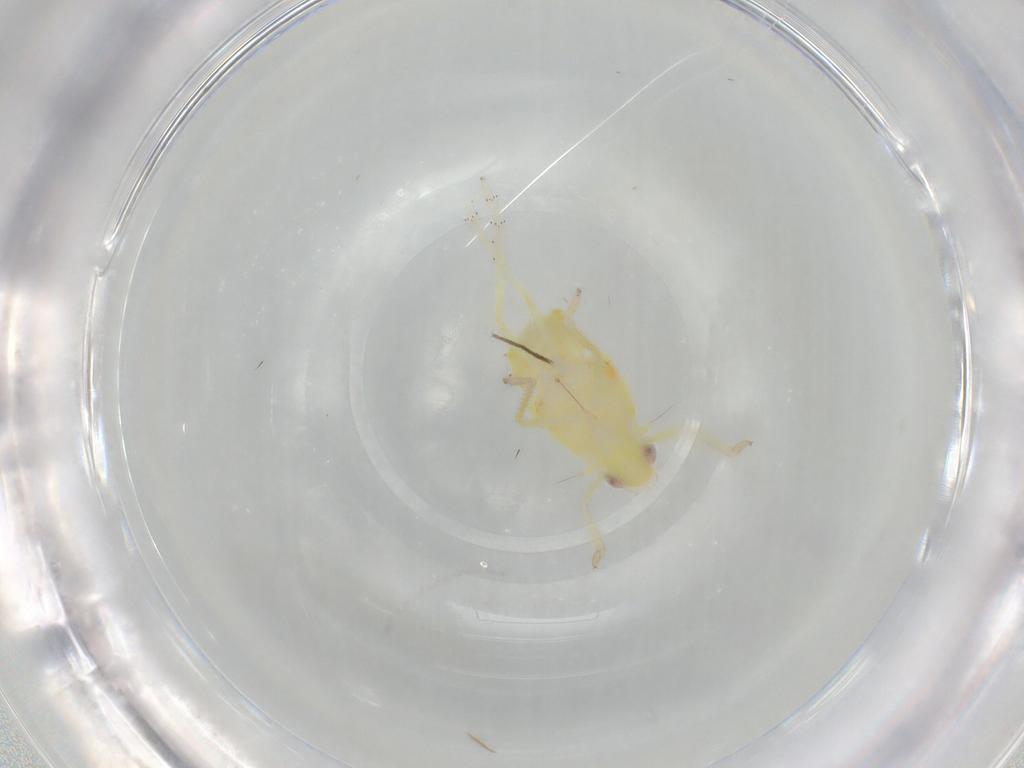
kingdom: Animalia
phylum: Arthropoda
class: Insecta
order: Hemiptera
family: Tropiduchidae
